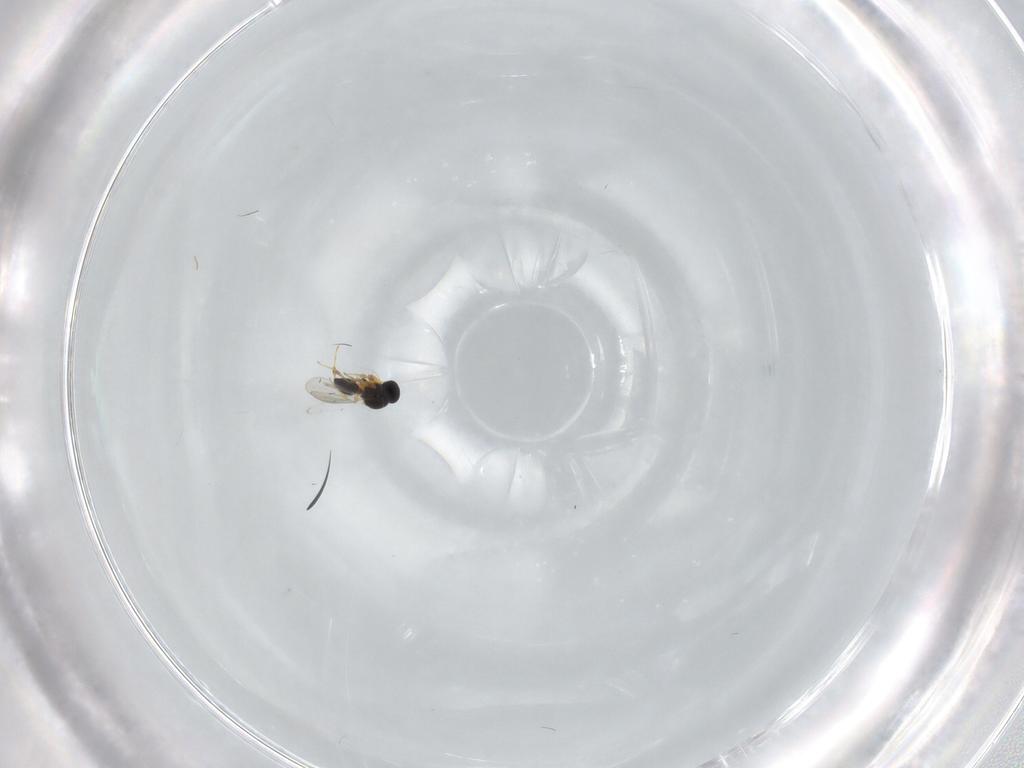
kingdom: Animalia
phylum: Arthropoda
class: Insecta
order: Hymenoptera
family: Platygastridae
